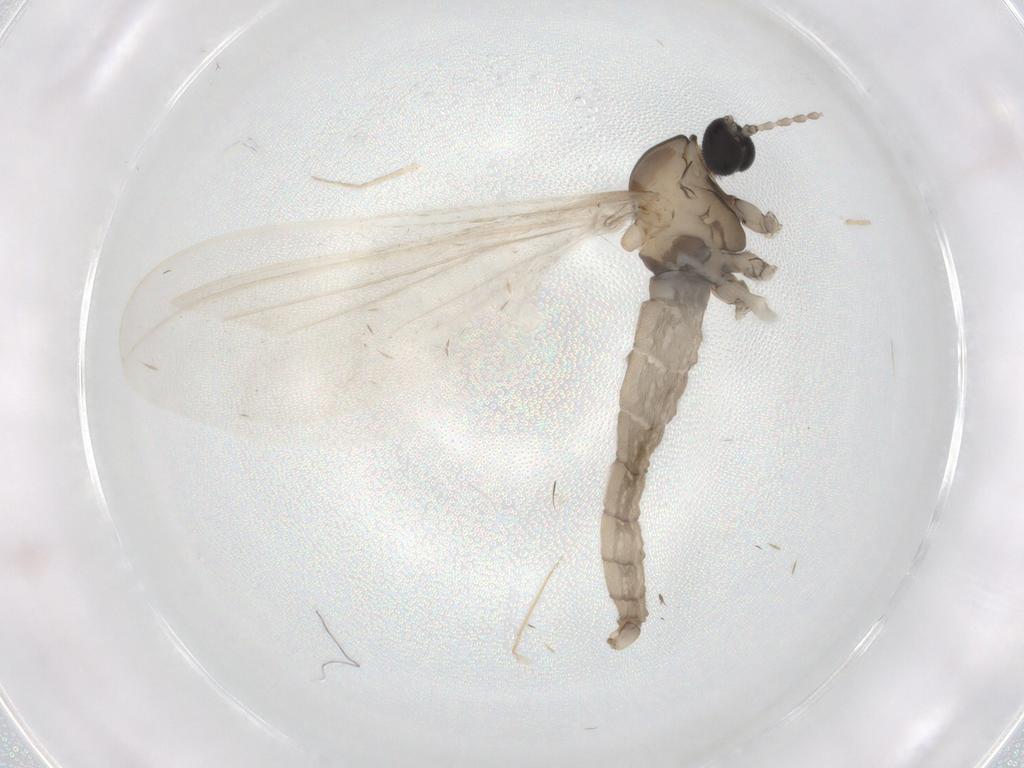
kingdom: Animalia
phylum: Arthropoda
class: Insecta
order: Diptera
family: Cecidomyiidae
